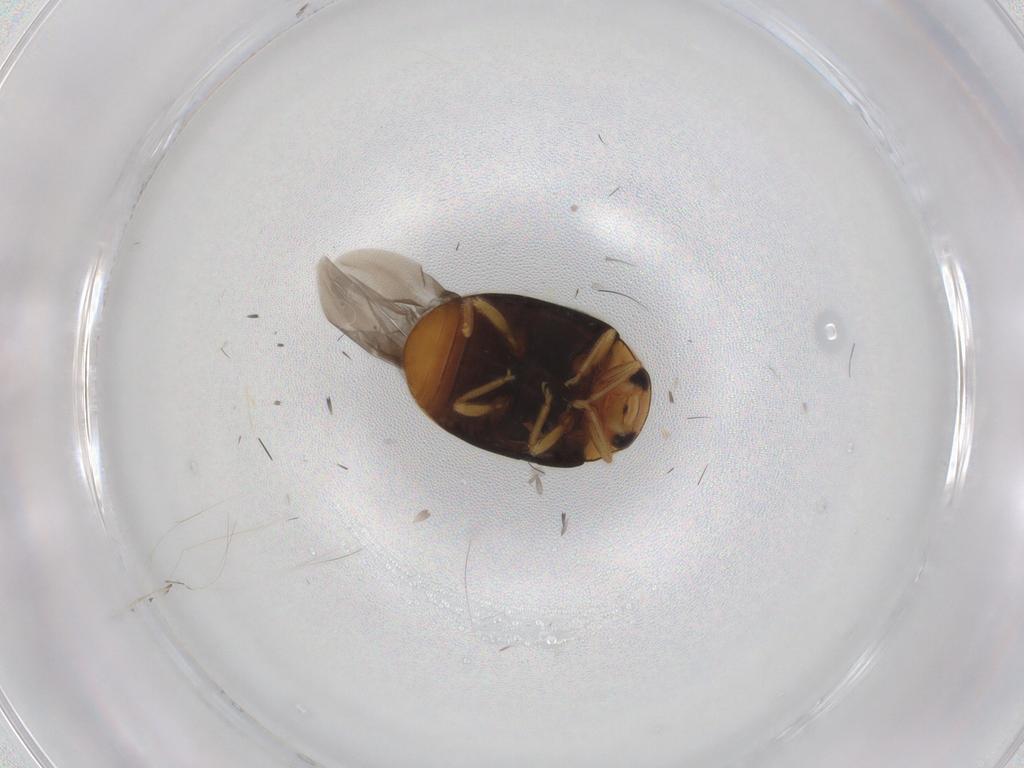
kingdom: Animalia
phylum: Arthropoda
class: Insecta
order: Coleoptera
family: Coccinellidae
